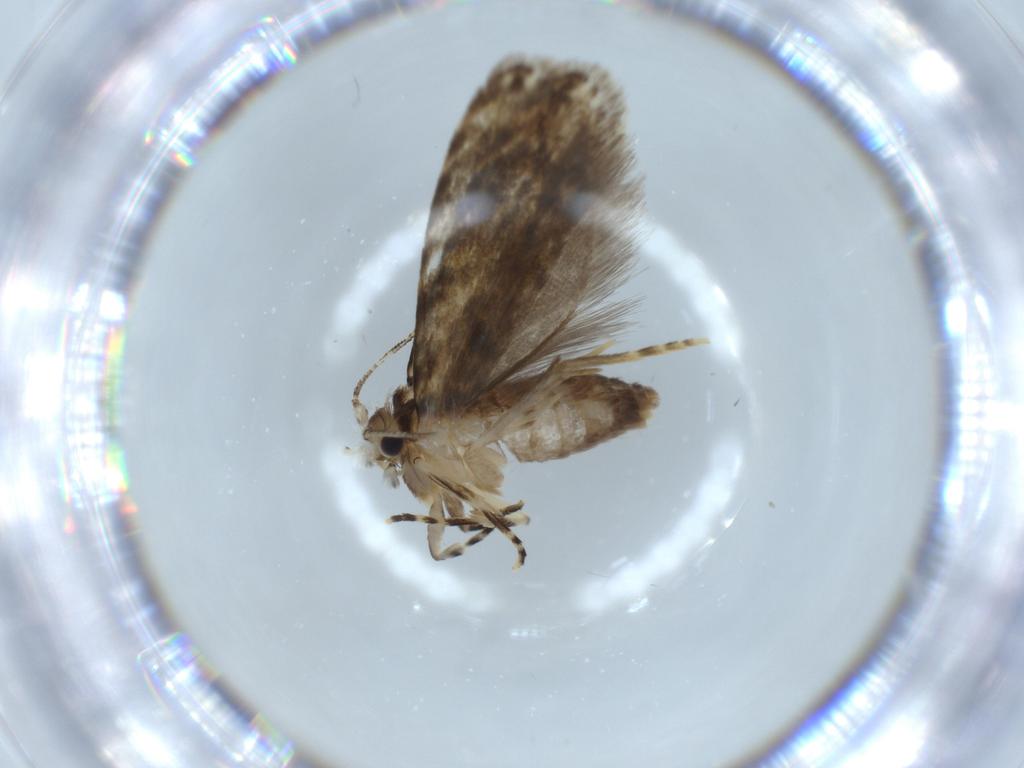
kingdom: Animalia
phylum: Arthropoda
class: Insecta
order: Lepidoptera
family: Tineidae
